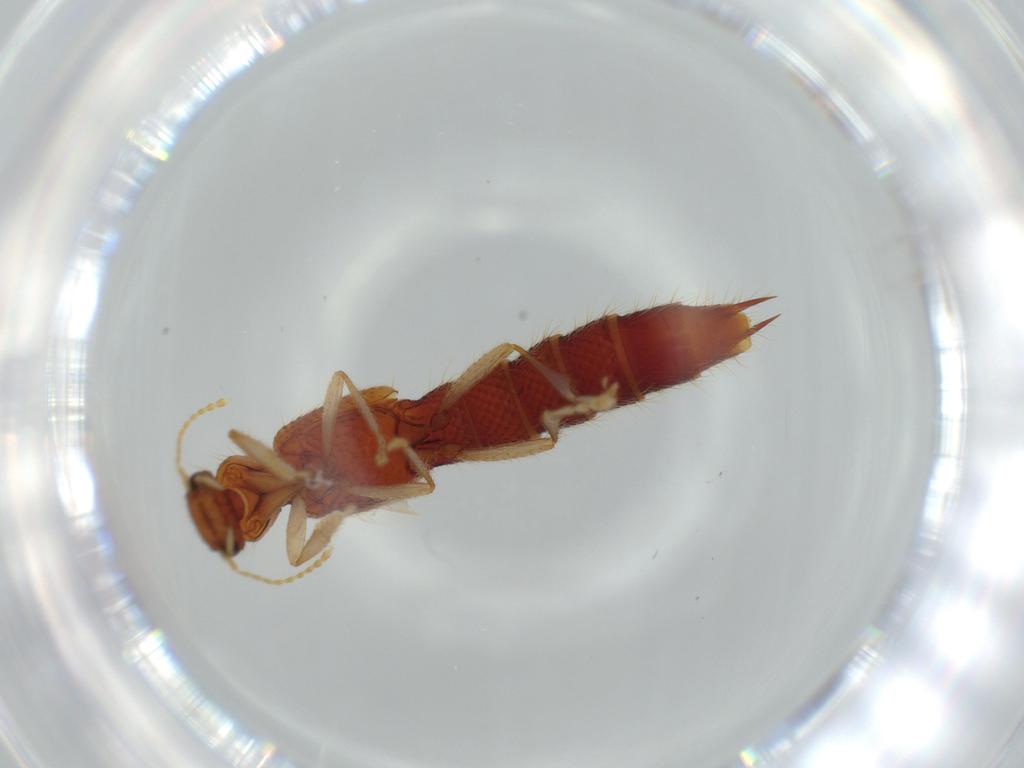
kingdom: Animalia
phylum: Arthropoda
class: Insecta
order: Coleoptera
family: Staphylinidae
